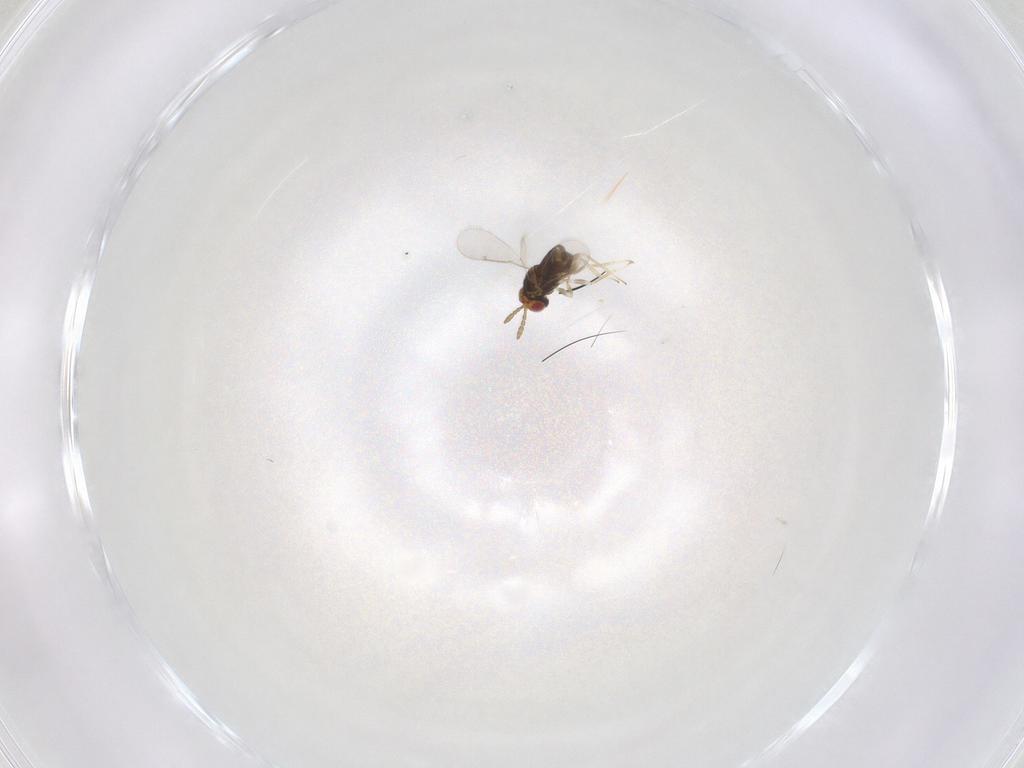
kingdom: Animalia
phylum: Arthropoda
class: Insecta
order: Hymenoptera
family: Aphelinidae
